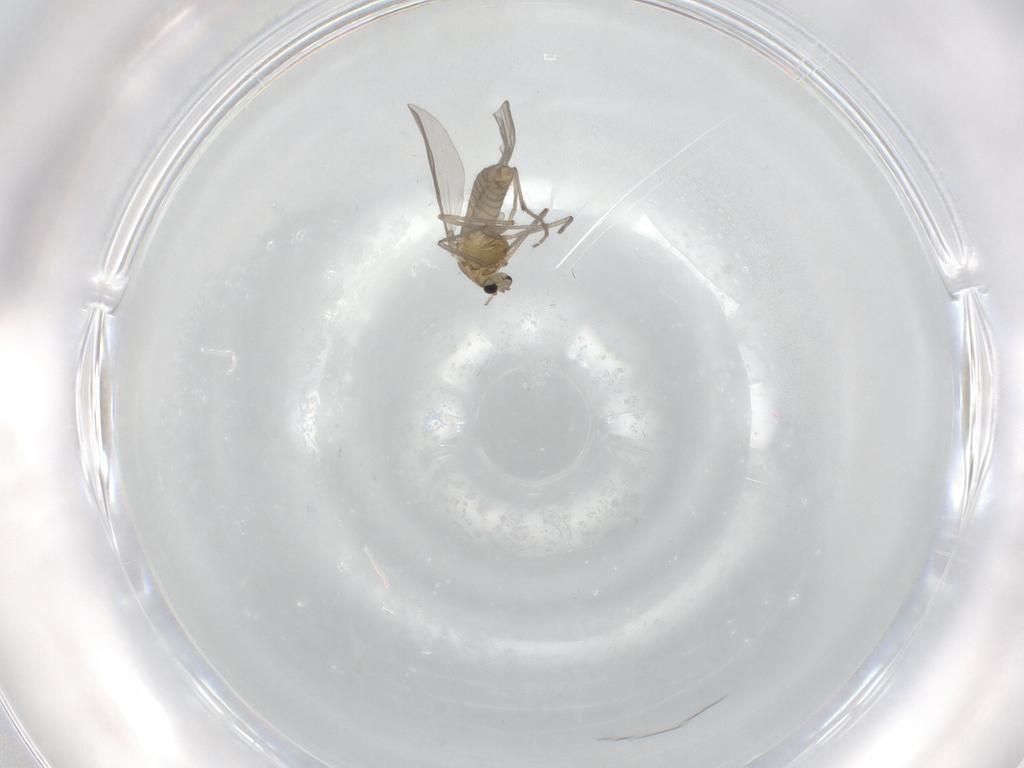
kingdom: Animalia
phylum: Arthropoda
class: Insecta
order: Diptera
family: Chironomidae
